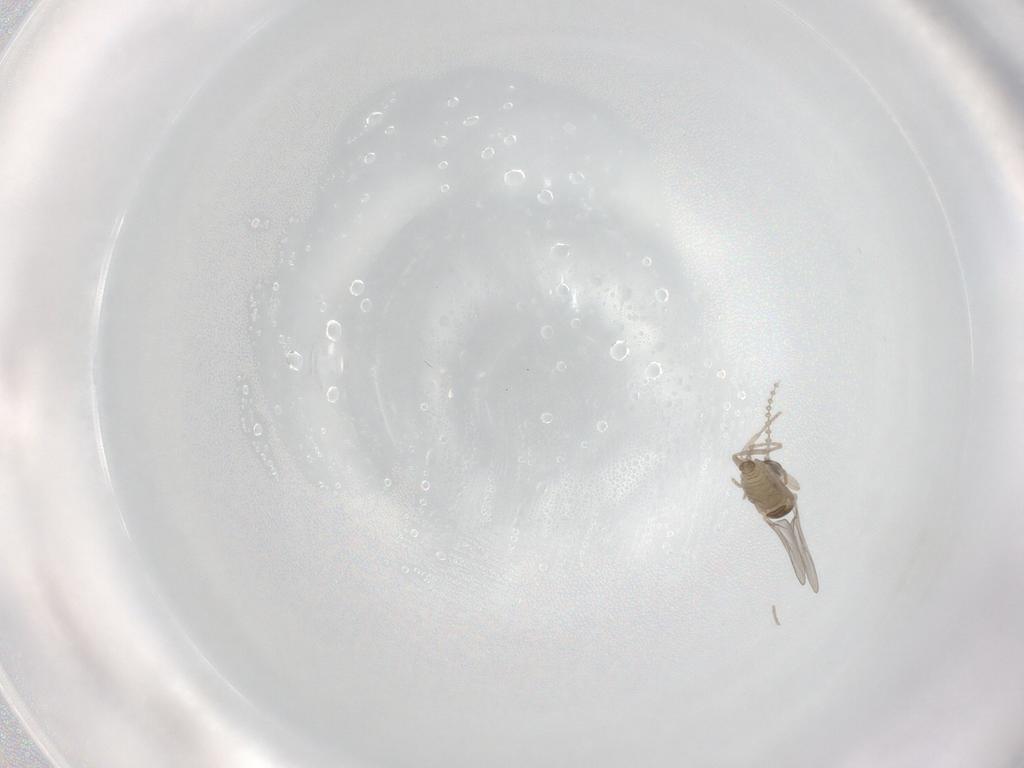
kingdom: Animalia
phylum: Arthropoda
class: Insecta
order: Diptera
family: Cecidomyiidae
